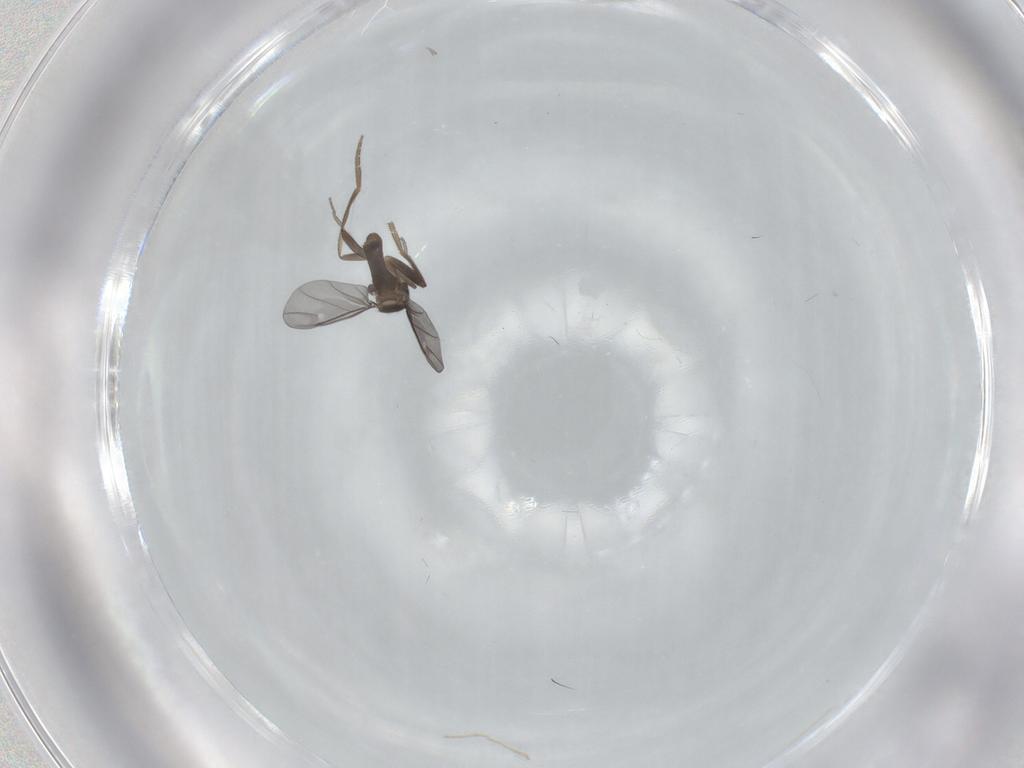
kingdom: Animalia
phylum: Arthropoda
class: Insecta
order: Diptera
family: Phoridae
